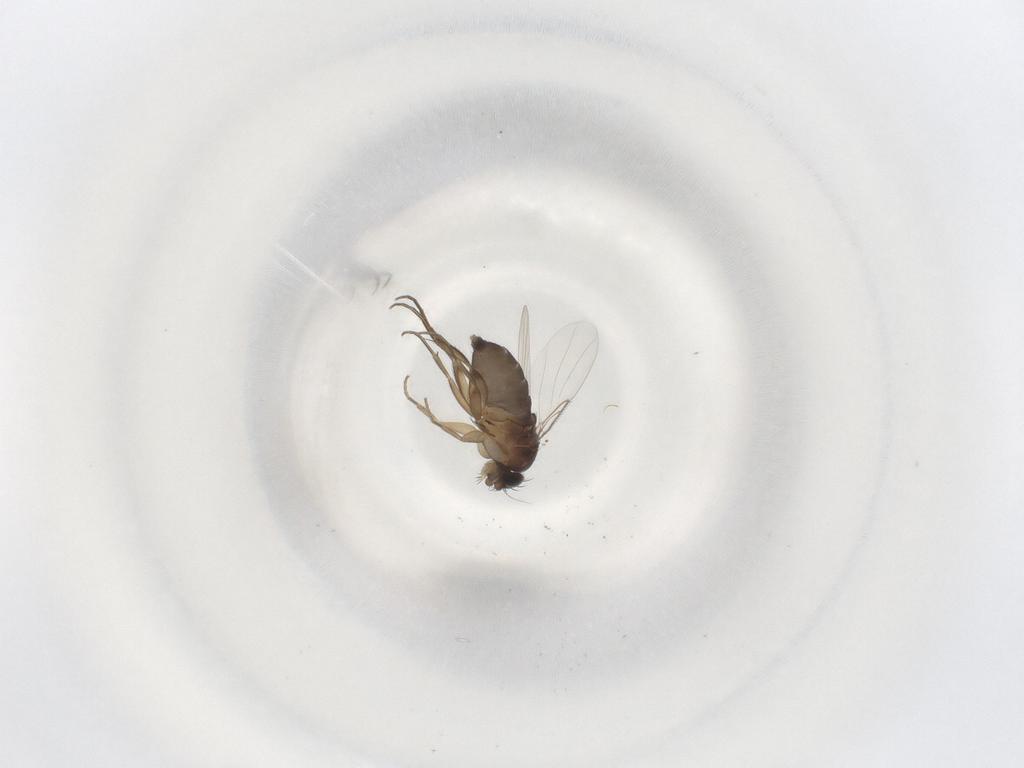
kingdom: Animalia
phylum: Arthropoda
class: Insecta
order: Diptera
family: Phoridae
